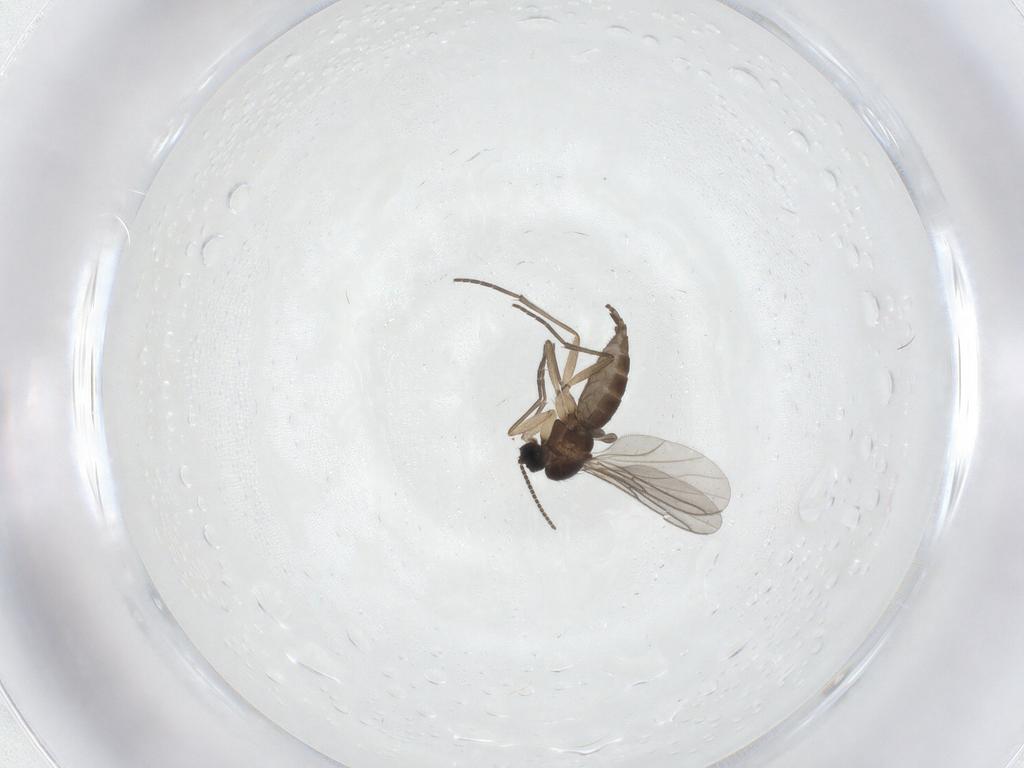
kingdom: Animalia
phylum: Arthropoda
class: Insecta
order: Diptera
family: Sciaridae
